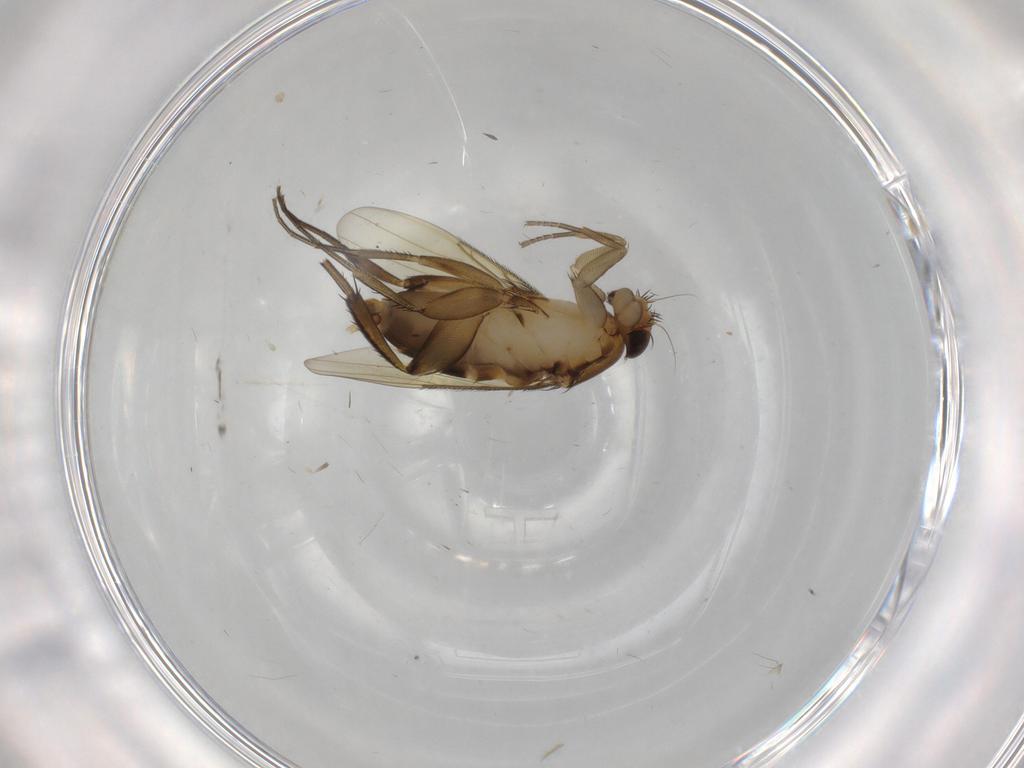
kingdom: Animalia
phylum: Arthropoda
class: Insecta
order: Diptera
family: Phoridae
